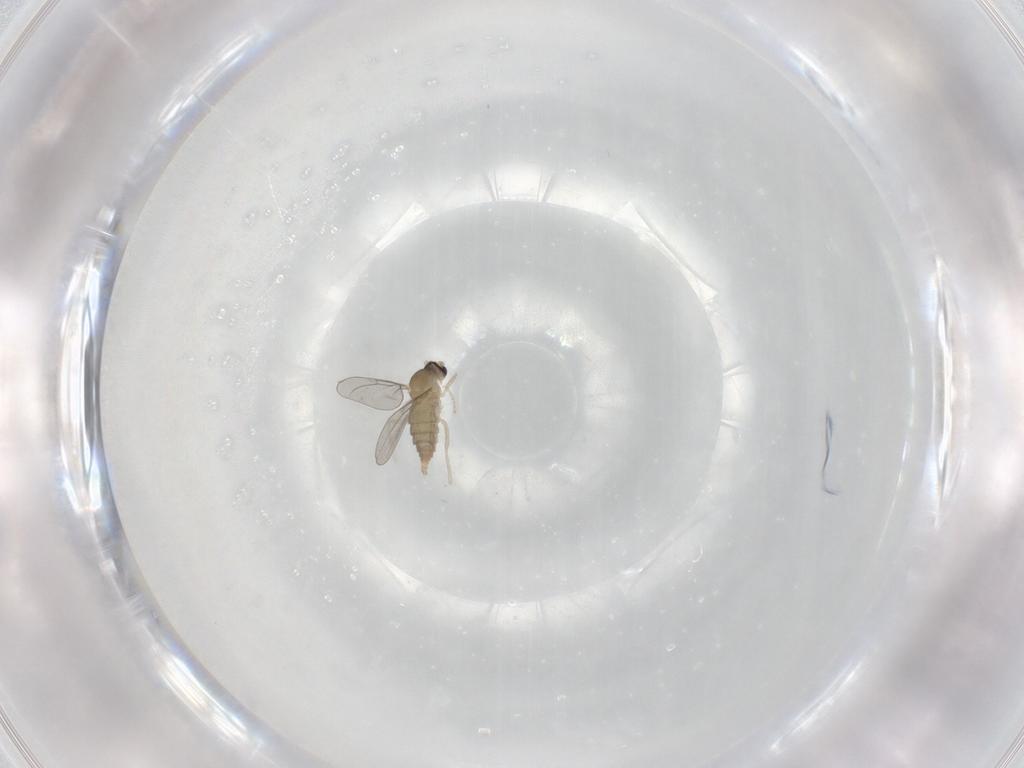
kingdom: Animalia
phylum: Arthropoda
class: Insecta
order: Diptera
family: Cecidomyiidae
